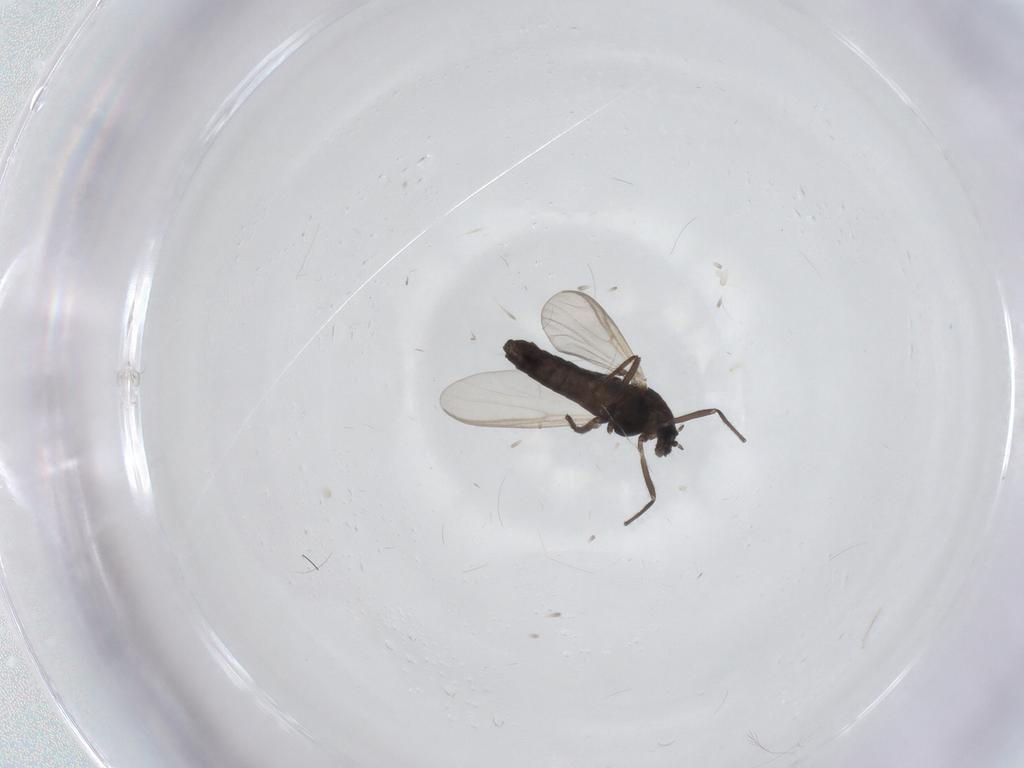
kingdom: Animalia
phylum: Arthropoda
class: Insecta
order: Diptera
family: Chironomidae
